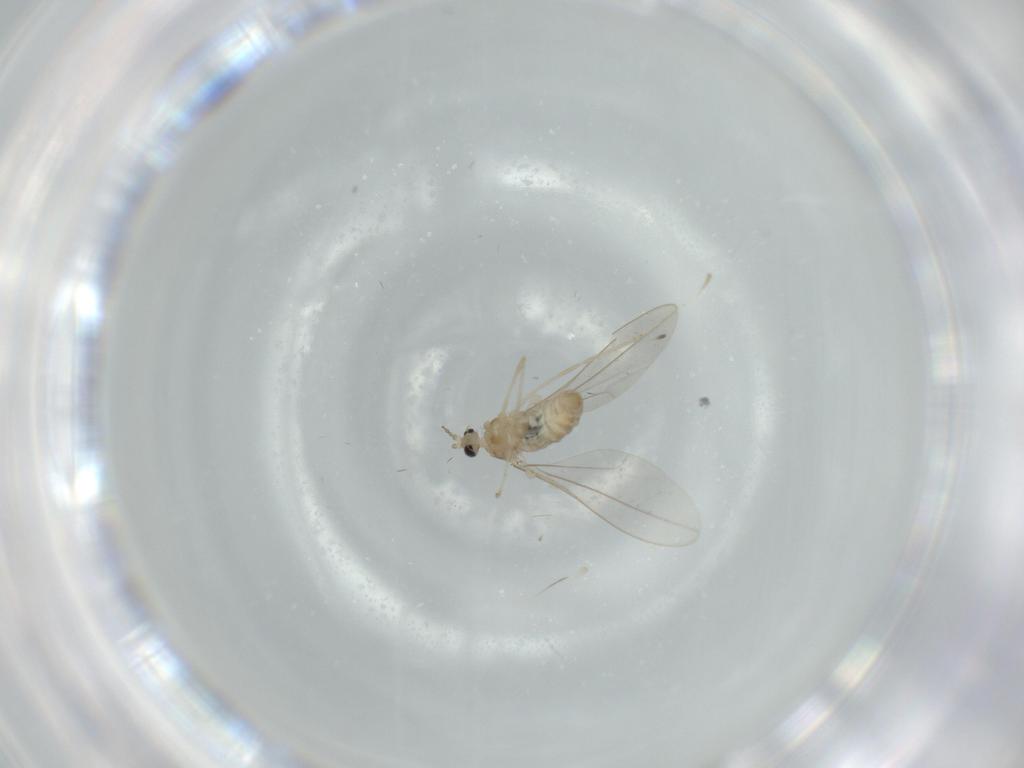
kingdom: Animalia
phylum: Arthropoda
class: Insecta
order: Diptera
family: Cecidomyiidae
